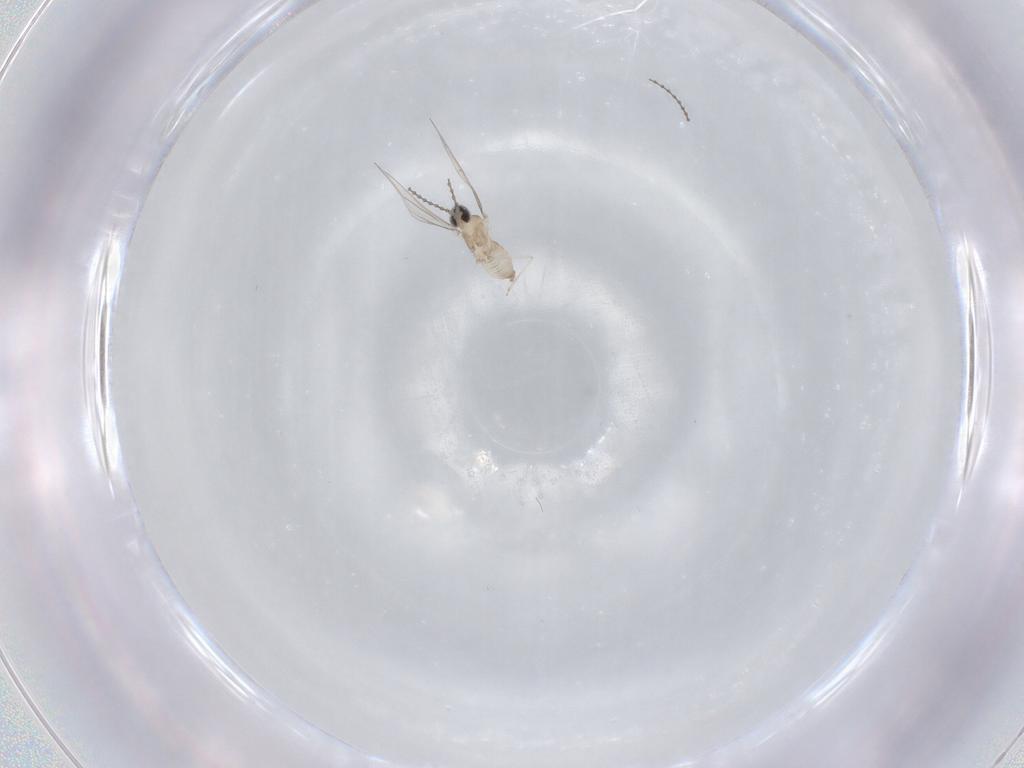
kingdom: Animalia
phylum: Arthropoda
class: Insecta
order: Diptera
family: Cecidomyiidae
